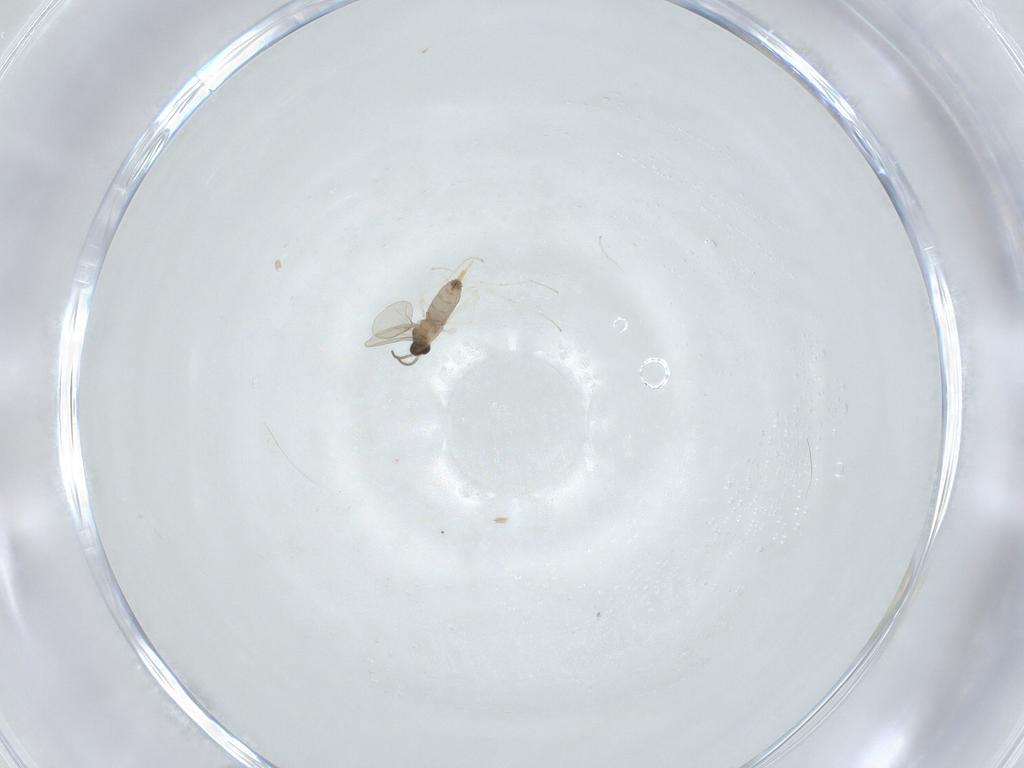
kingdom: Animalia
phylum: Arthropoda
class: Insecta
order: Diptera
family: Cecidomyiidae
